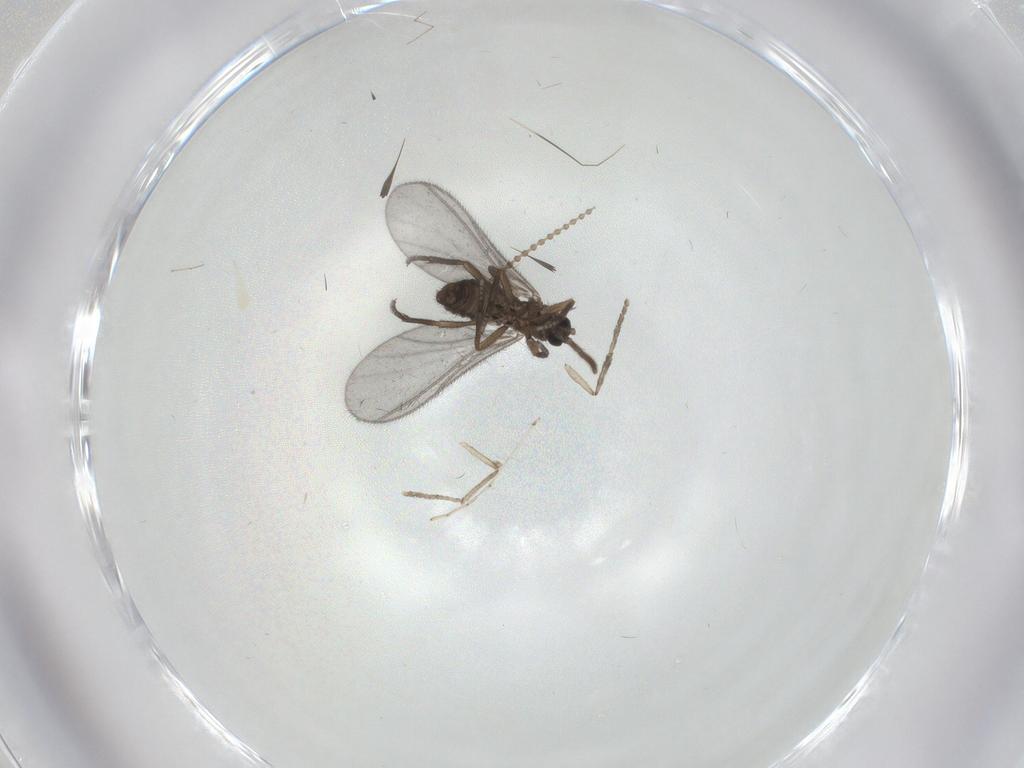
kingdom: Animalia
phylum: Arthropoda
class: Insecta
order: Diptera
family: Sciaridae
